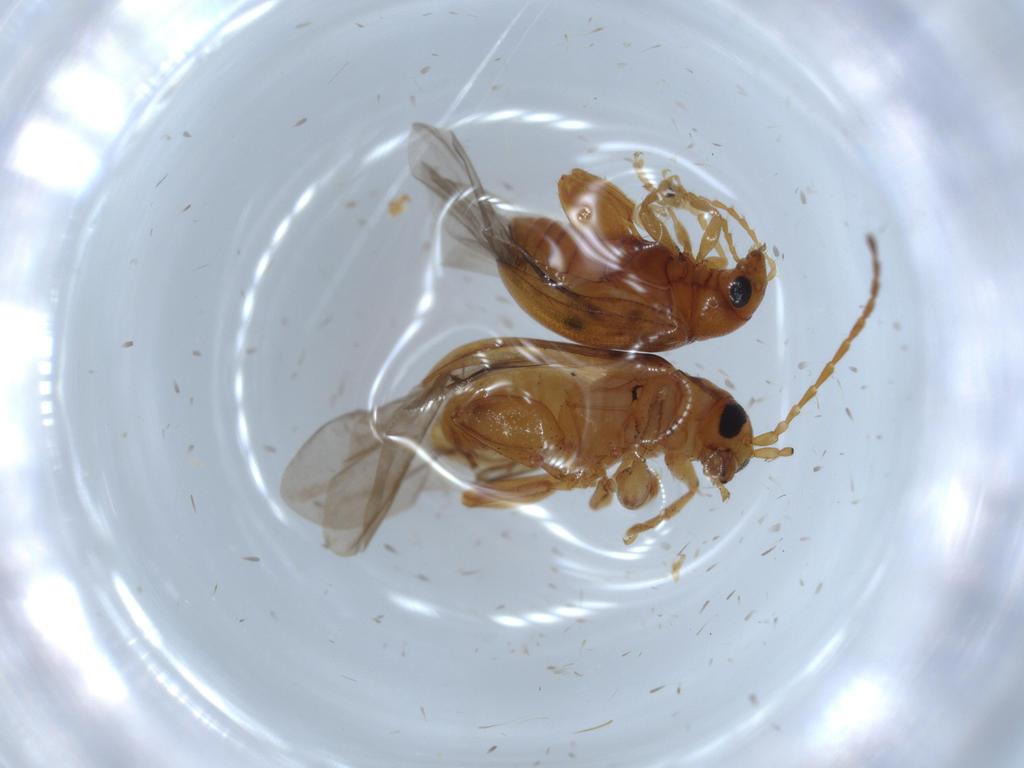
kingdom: Animalia
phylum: Arthropoda
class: Insecta
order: Coleoptera
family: Chrysomelidae
